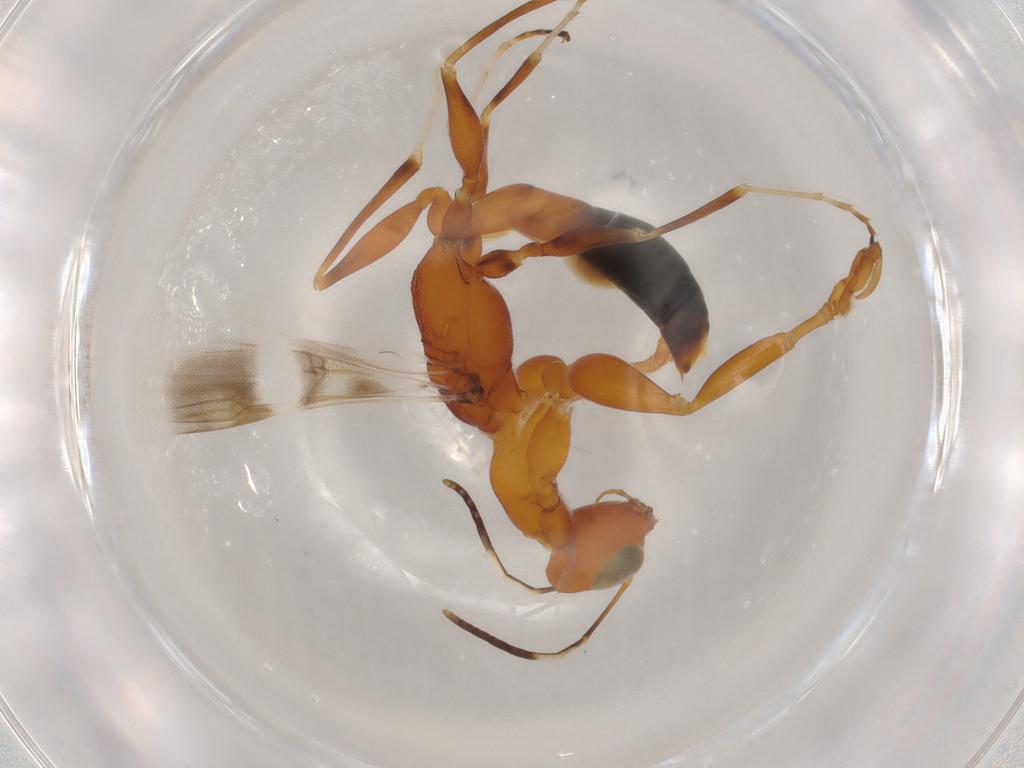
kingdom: Animalia
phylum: Arthropoda
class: Insecta
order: Hymenoptera
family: Dryinidae
